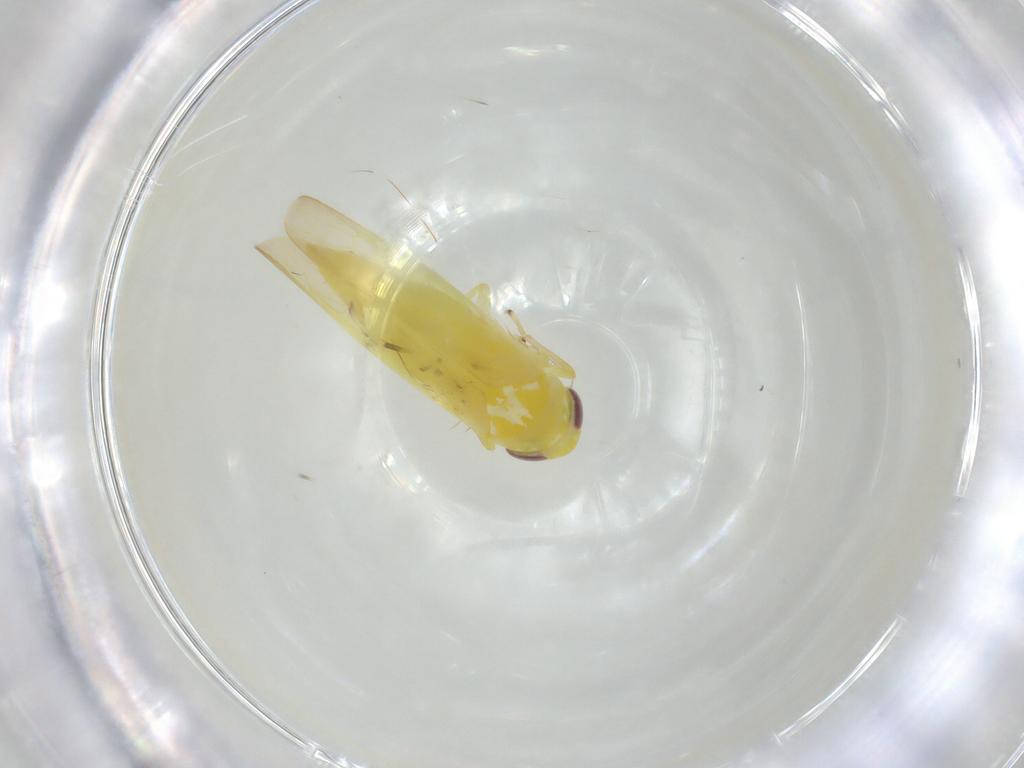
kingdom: Animalia
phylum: Arthropoda
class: Insecta
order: Hemiptera
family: Cicadellidae
